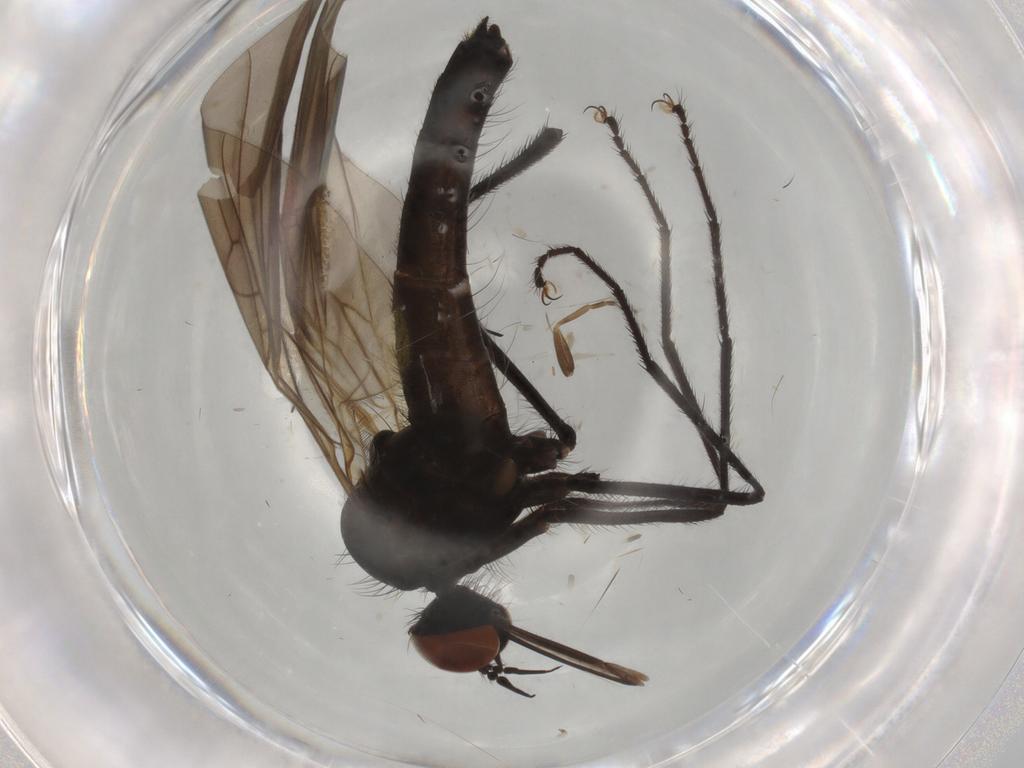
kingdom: Animalia
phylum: Arthropoda
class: Insecta
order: Diptera
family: Empididae
